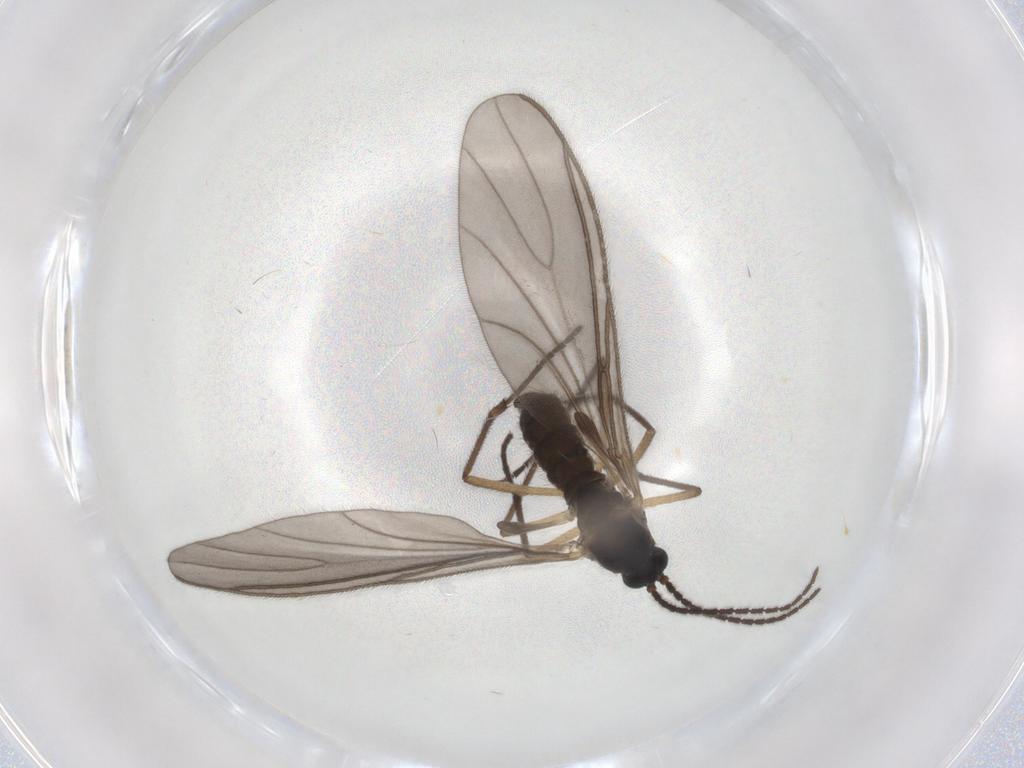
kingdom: Animalia
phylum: Arthropoda
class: Insecta
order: Diptera
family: Sciaridae
